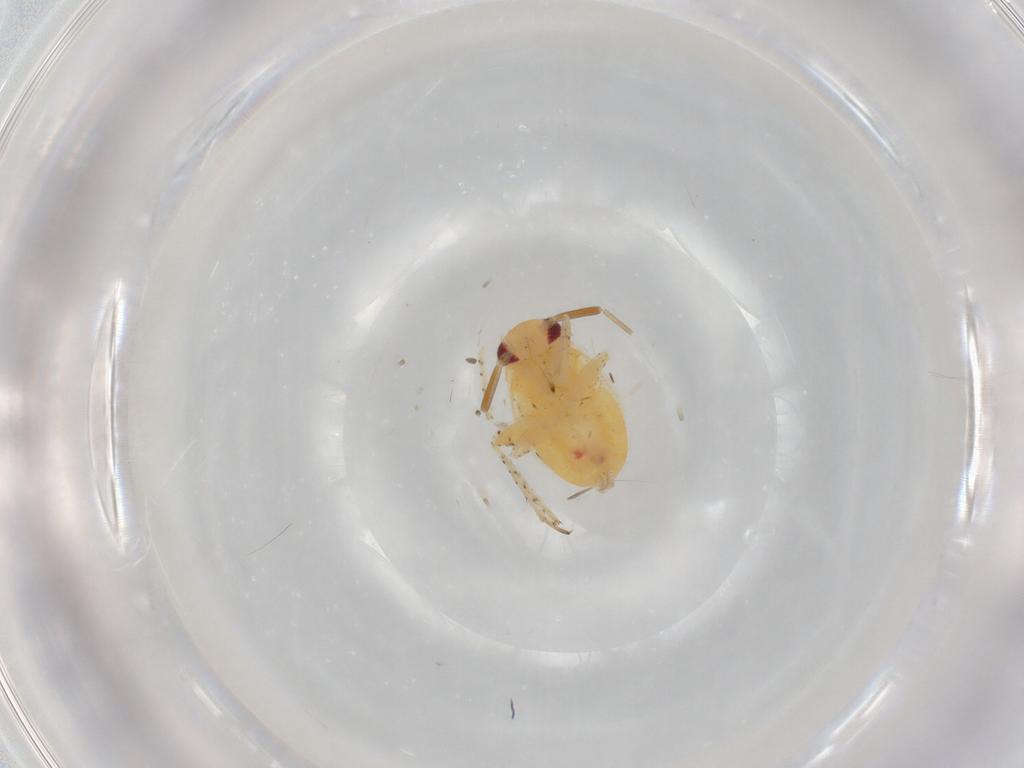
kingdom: Animalia
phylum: Arthropoda
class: Insecta
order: Hemiptera
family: Miridae
